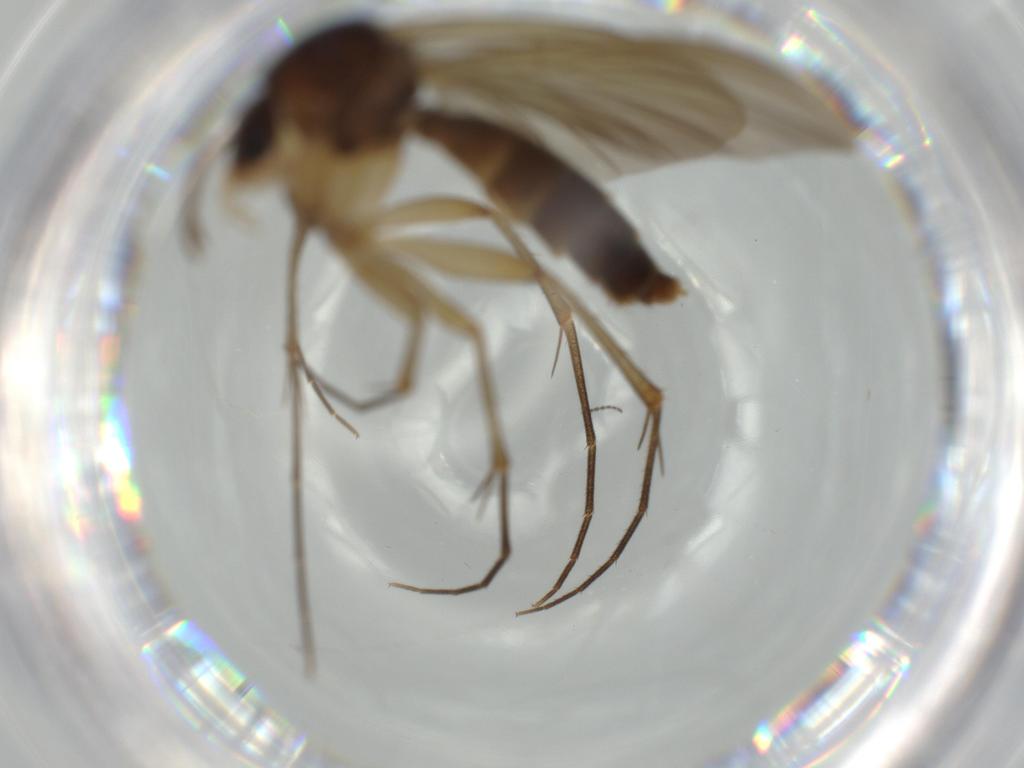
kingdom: Animalia
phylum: Arthropoda
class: Insecta
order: Diptera
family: Mycetophilidae
